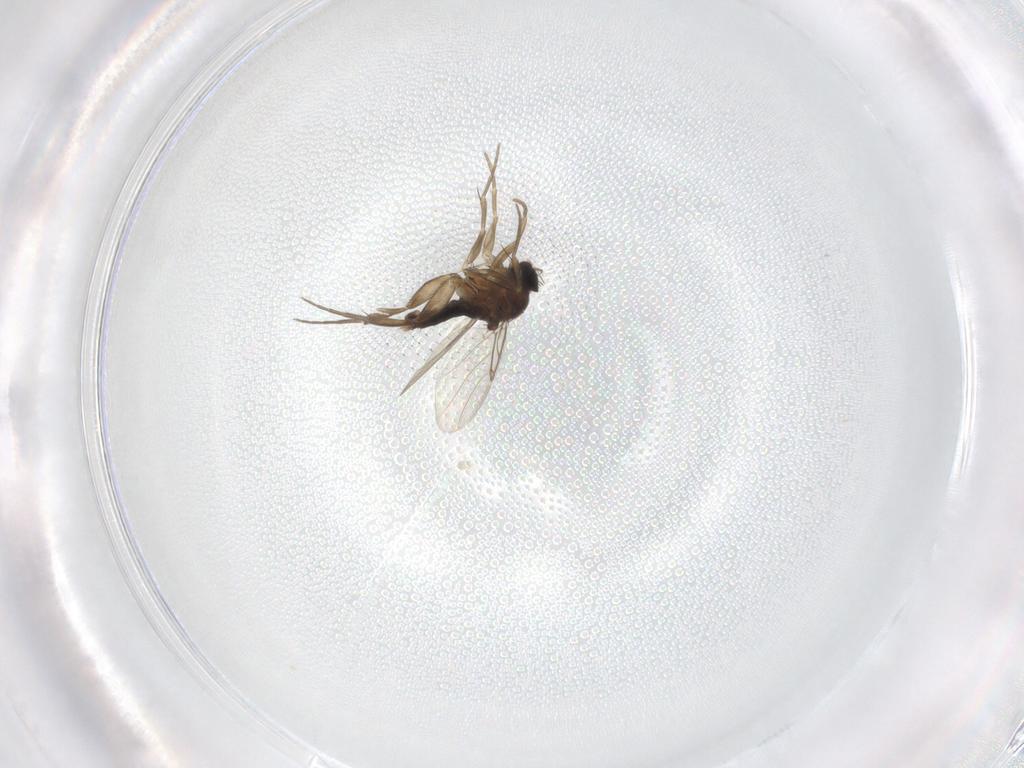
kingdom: Animalia
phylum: Arthropoda
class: Insecta
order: Diptera
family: Phoridae
